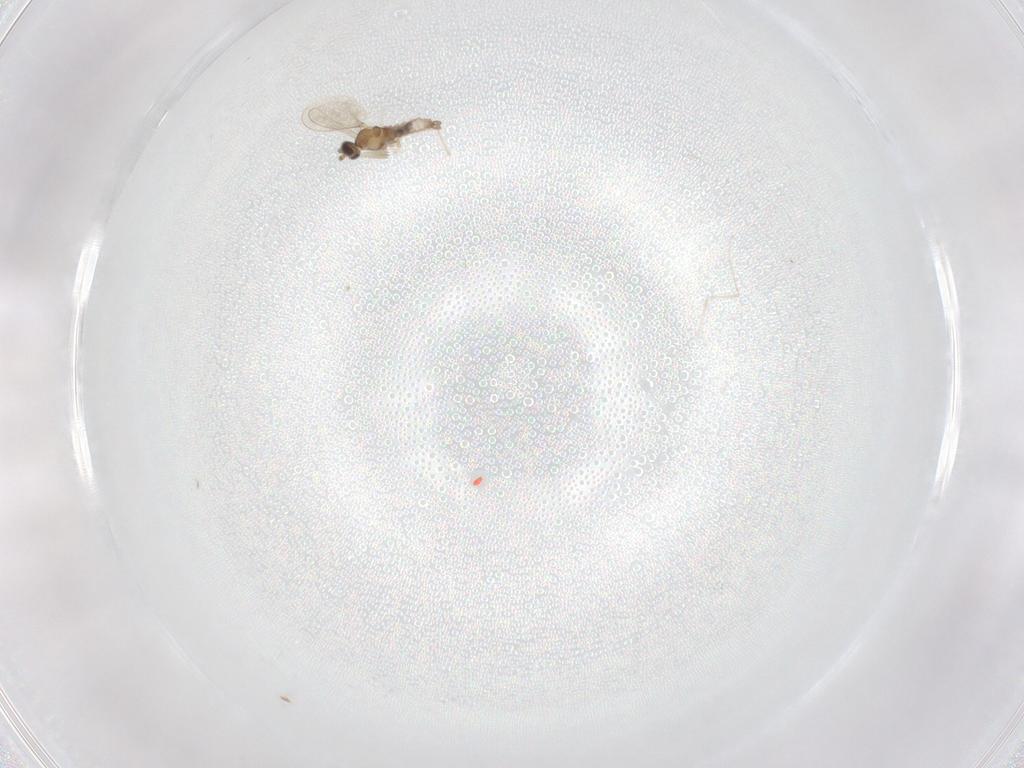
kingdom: Animalia
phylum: Arthropoda
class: Insecta
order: Diptera
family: Cecidomyiidae
